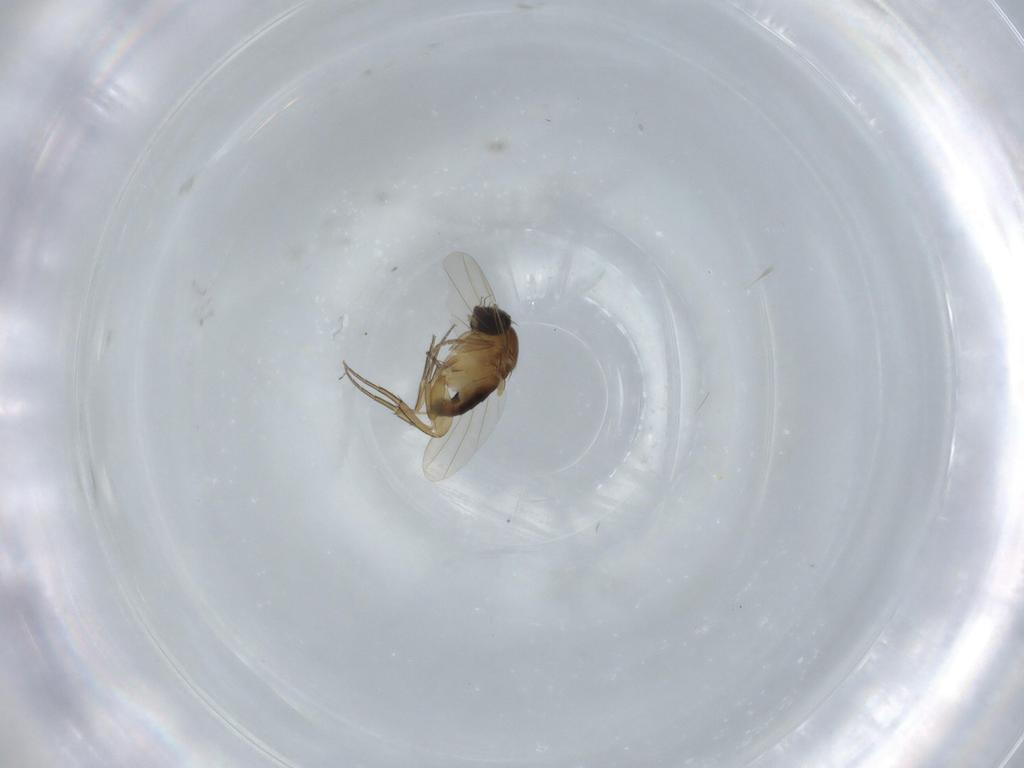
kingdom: Animalia
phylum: Arthropoda
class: Insecta
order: Diptera
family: Phoridae
